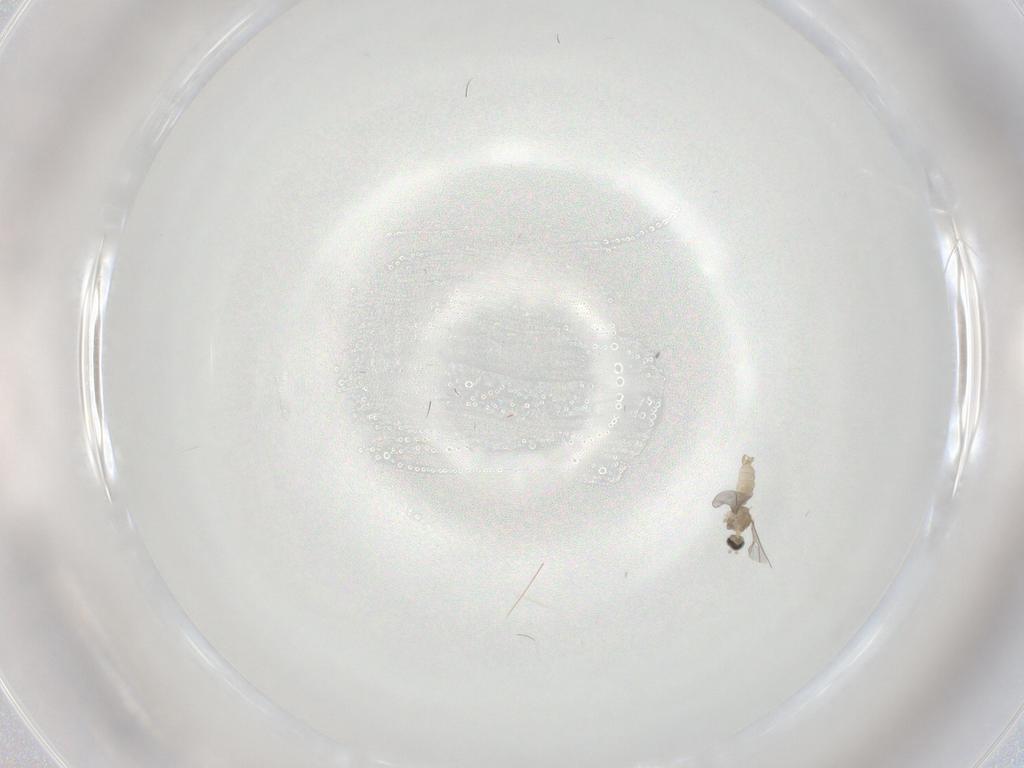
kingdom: Animalia
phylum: Arthropoda
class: Insecta
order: Diptera
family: Cecidomyiidae
